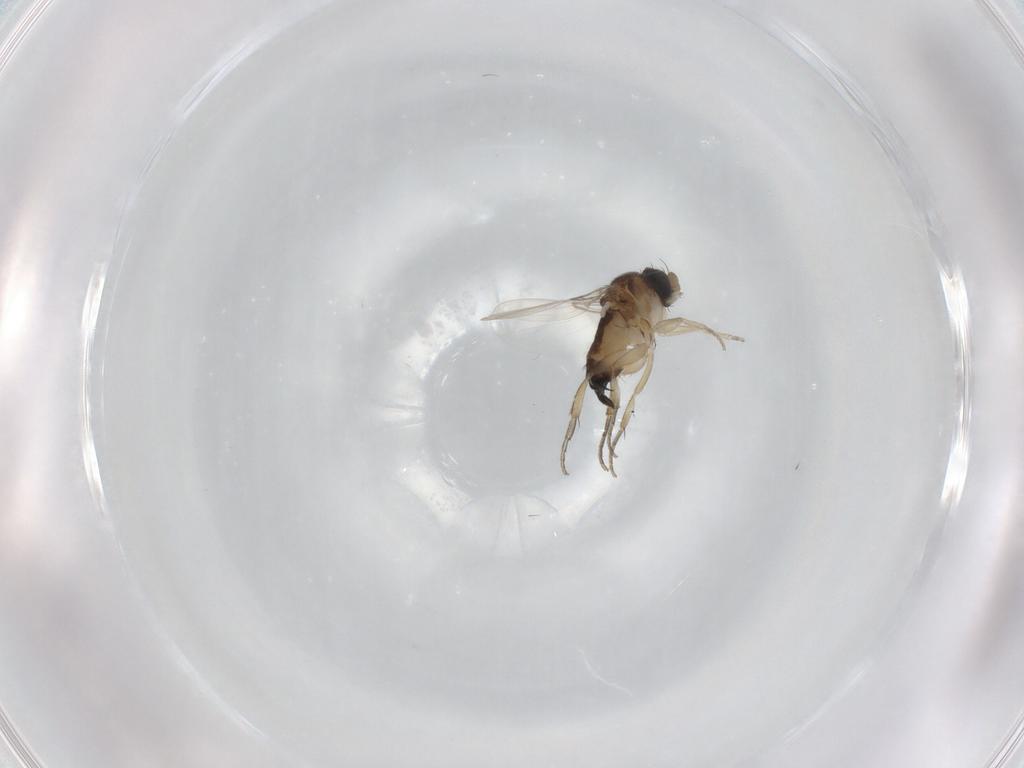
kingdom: Animalia
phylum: Arthropoda
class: Insecta
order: Diptera
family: Phoridae
